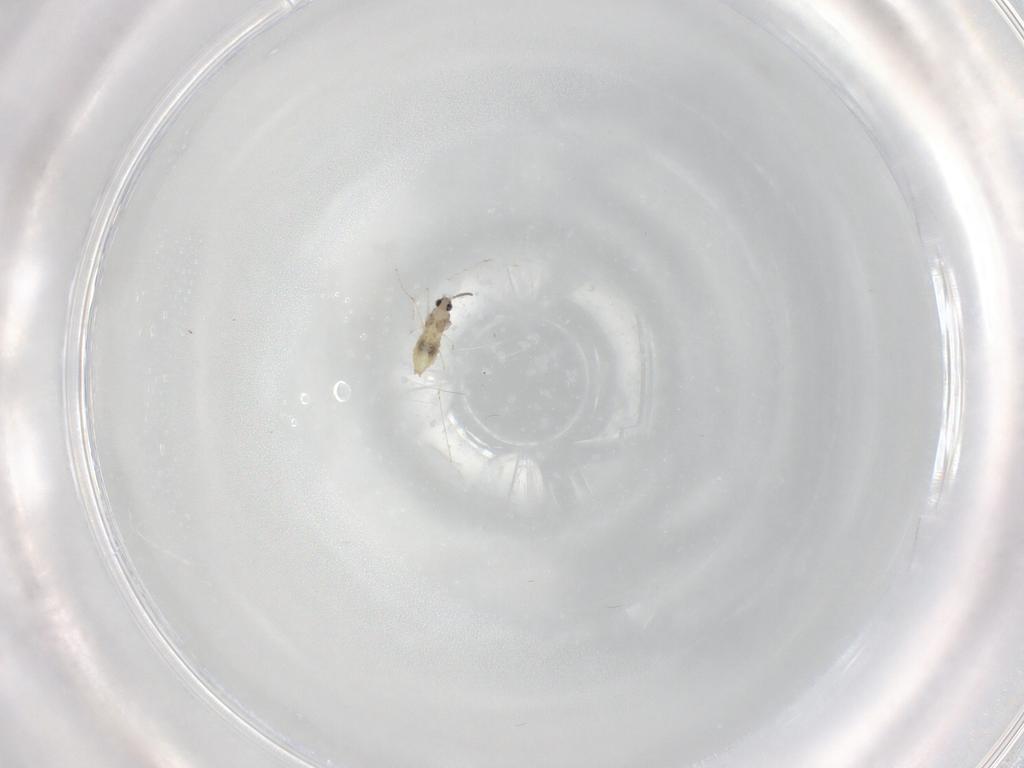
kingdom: Animalia
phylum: Arthropoda
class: Insecta
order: Diptera
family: Cecidomyiidae
